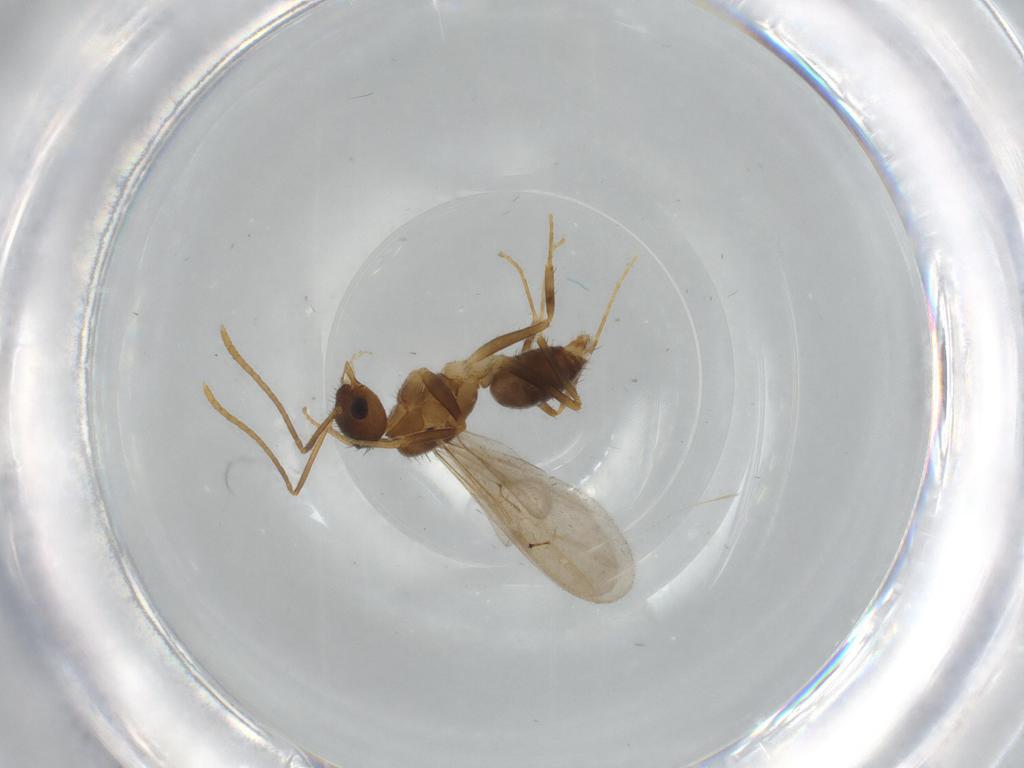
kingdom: Animalia
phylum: Arthropoda
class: Insecta
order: Hymenoptera
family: Formicidae
